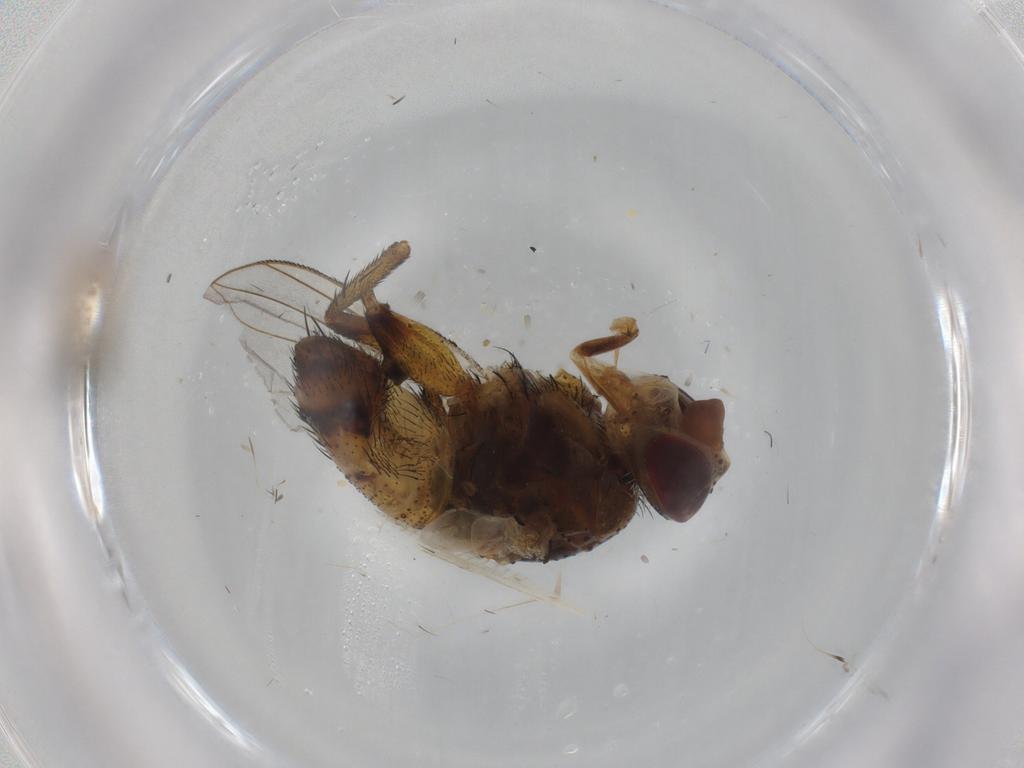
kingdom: Animalia
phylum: Arthropoda
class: Insecta
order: Diptera
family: Tachinidae
